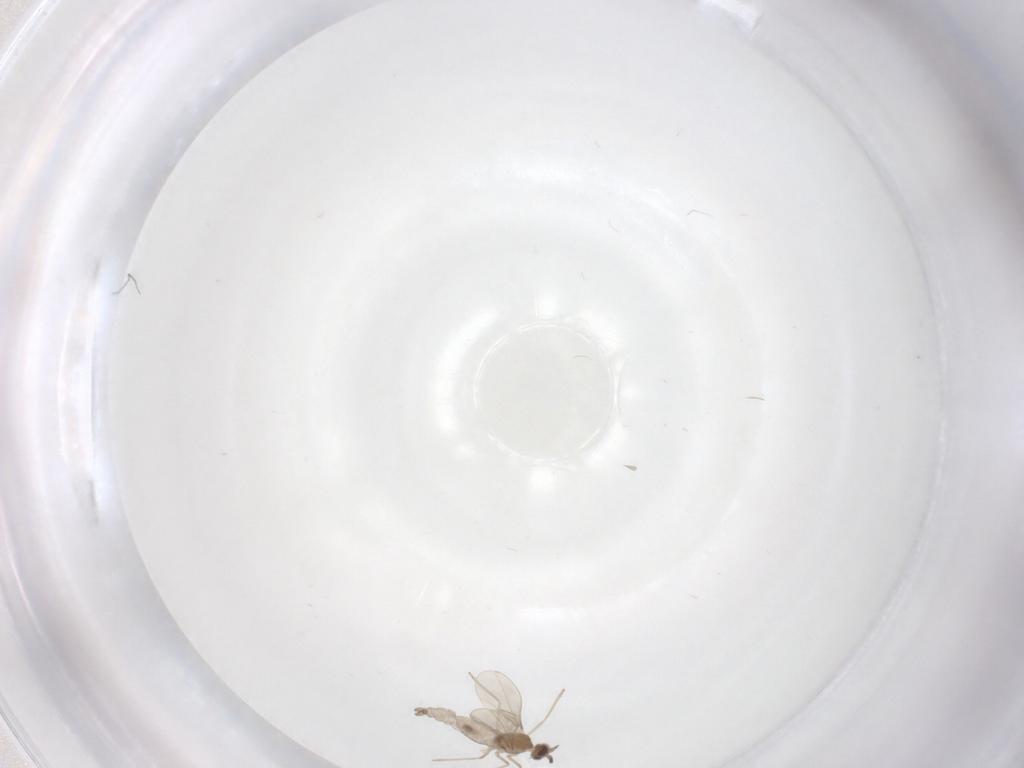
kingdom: Animalia
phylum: Arthropoda
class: Insecta
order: Diptera
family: Cecidomyiidae
